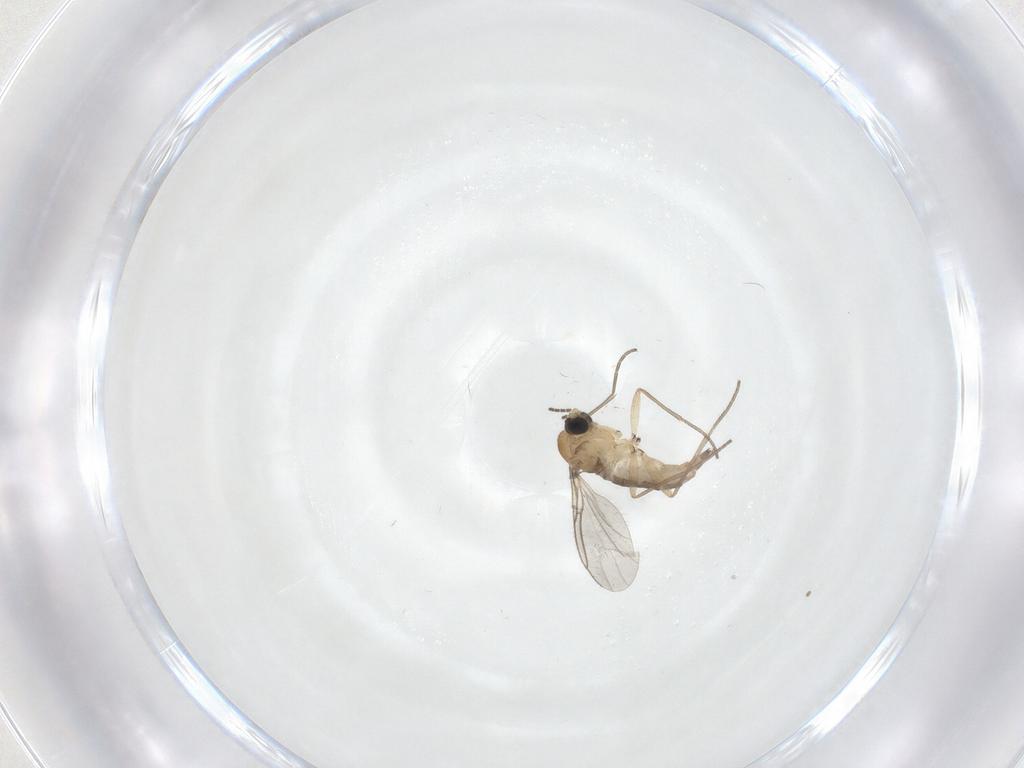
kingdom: Animalia
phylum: Arthropoda
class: Insecta
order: Diptera
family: Sciaridae
